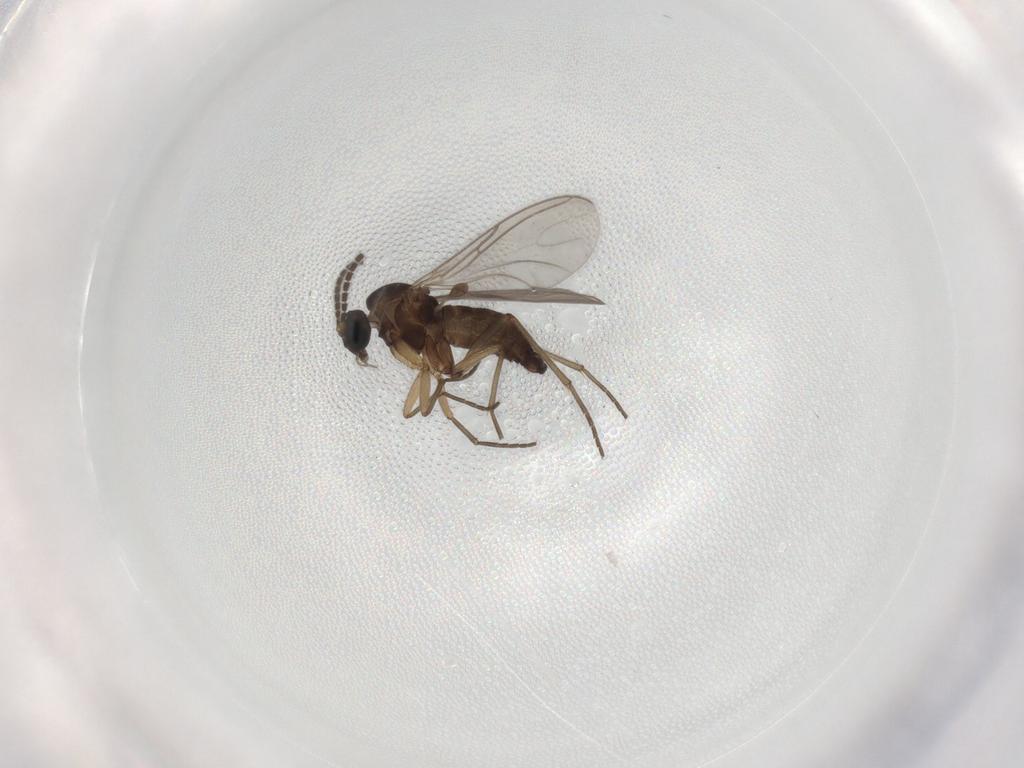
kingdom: Animalia
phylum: Arthropoda
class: Insecta
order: Diptera
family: Sciaridae
